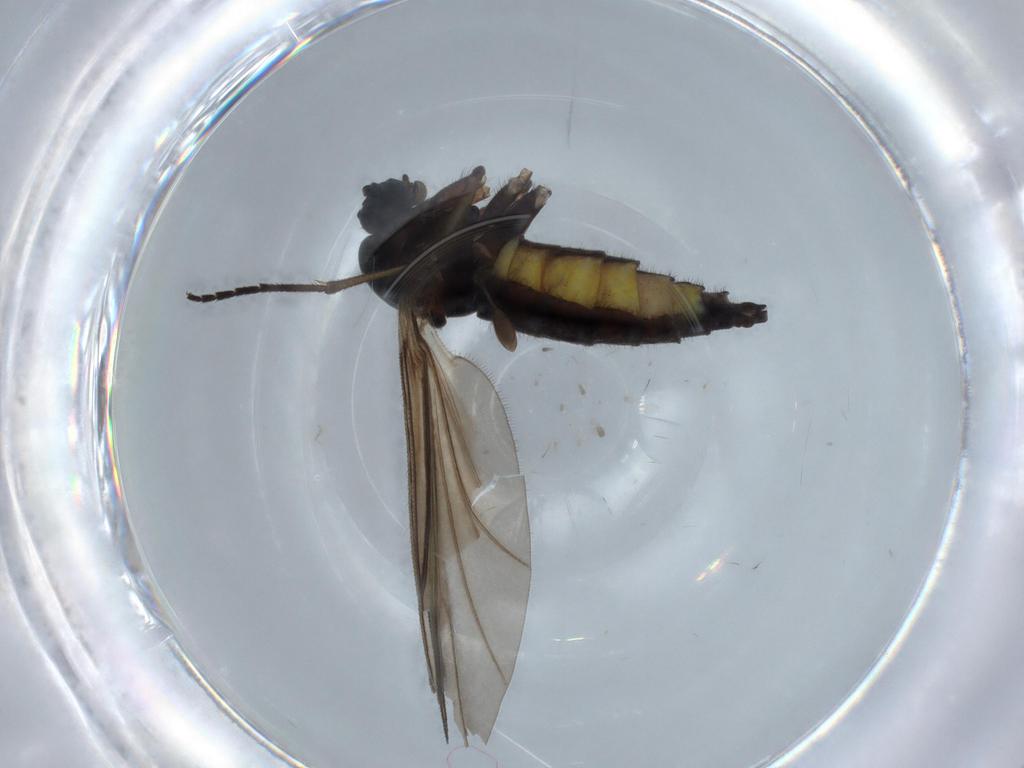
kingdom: Animalia
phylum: Arthropoda
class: Insecta
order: Diptera
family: Sciaridae
